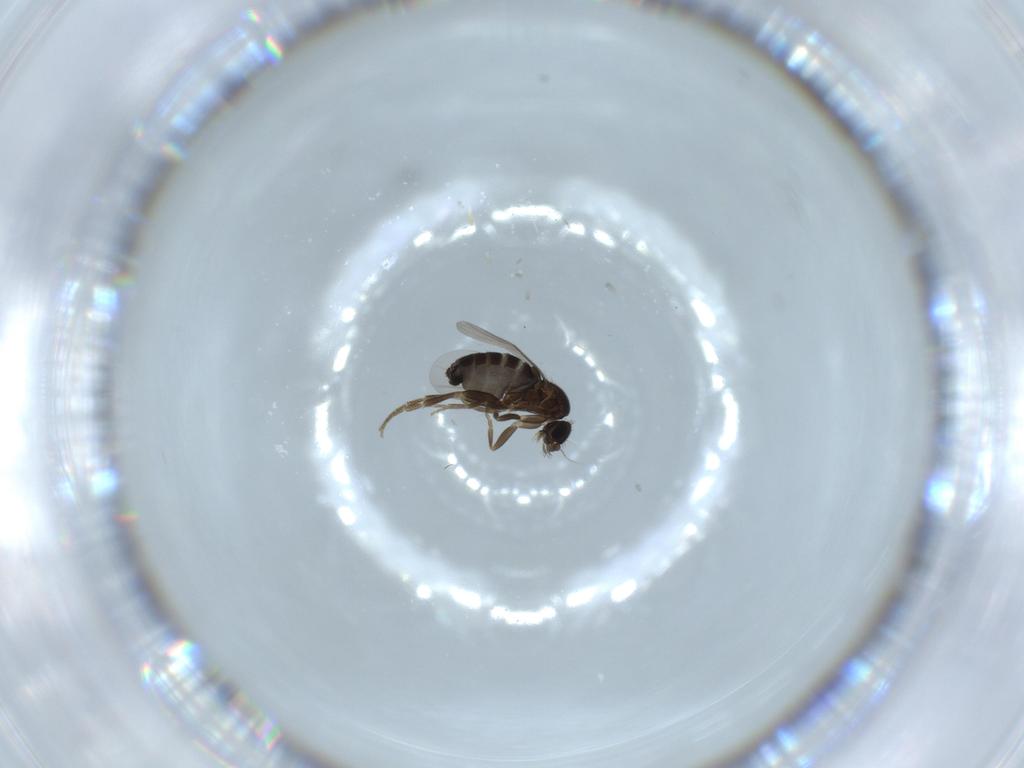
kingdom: Animalia
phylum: Arthropoda
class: Insecta
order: Diptera
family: Phoridae
